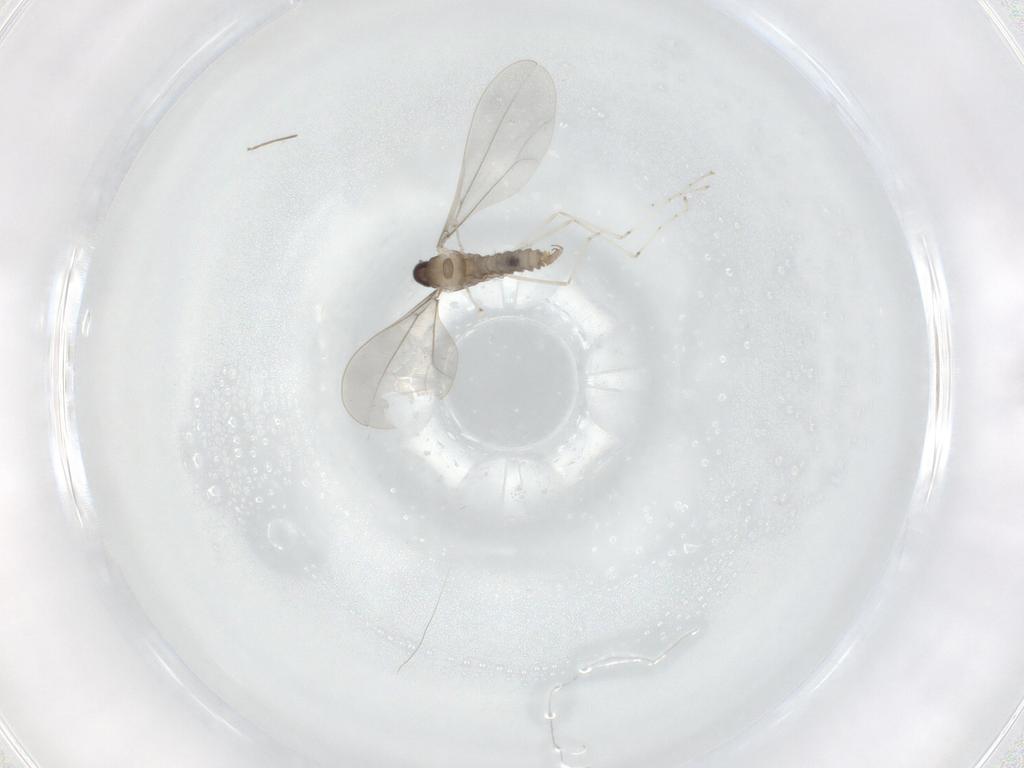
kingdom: Animalia
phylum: Arthropoda
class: Insecta
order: Diptera
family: Cecidomyiidae
